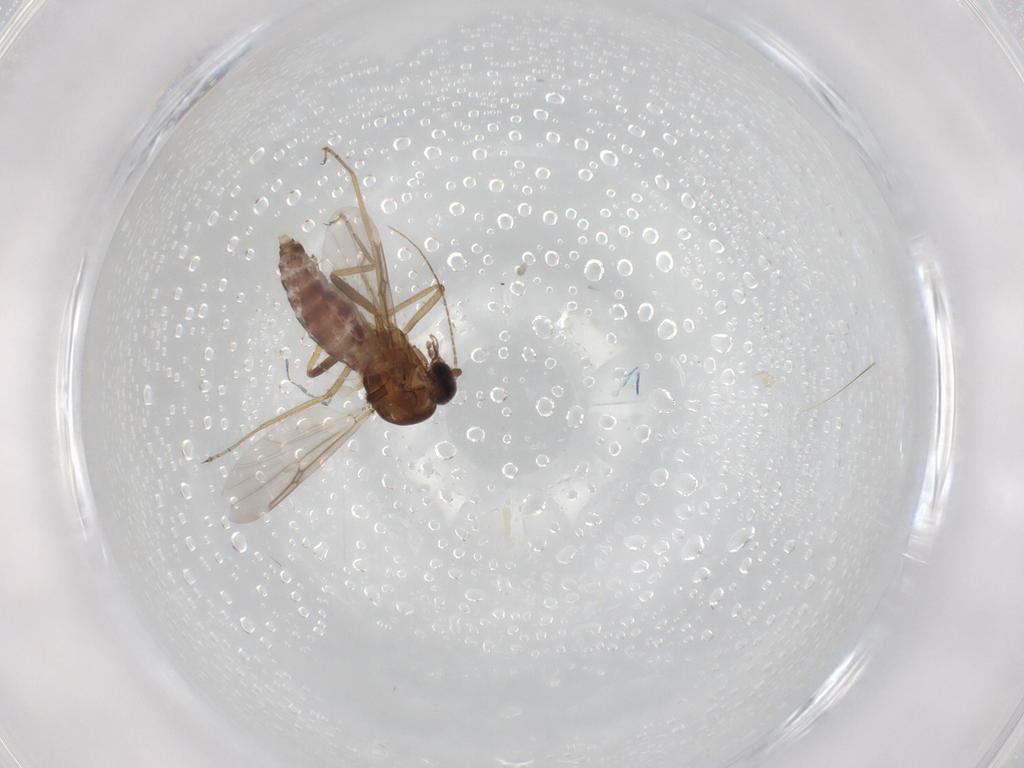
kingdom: Animalia
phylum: Arthropoda
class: Insecta
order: Diptera
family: Ceratopogonidae
